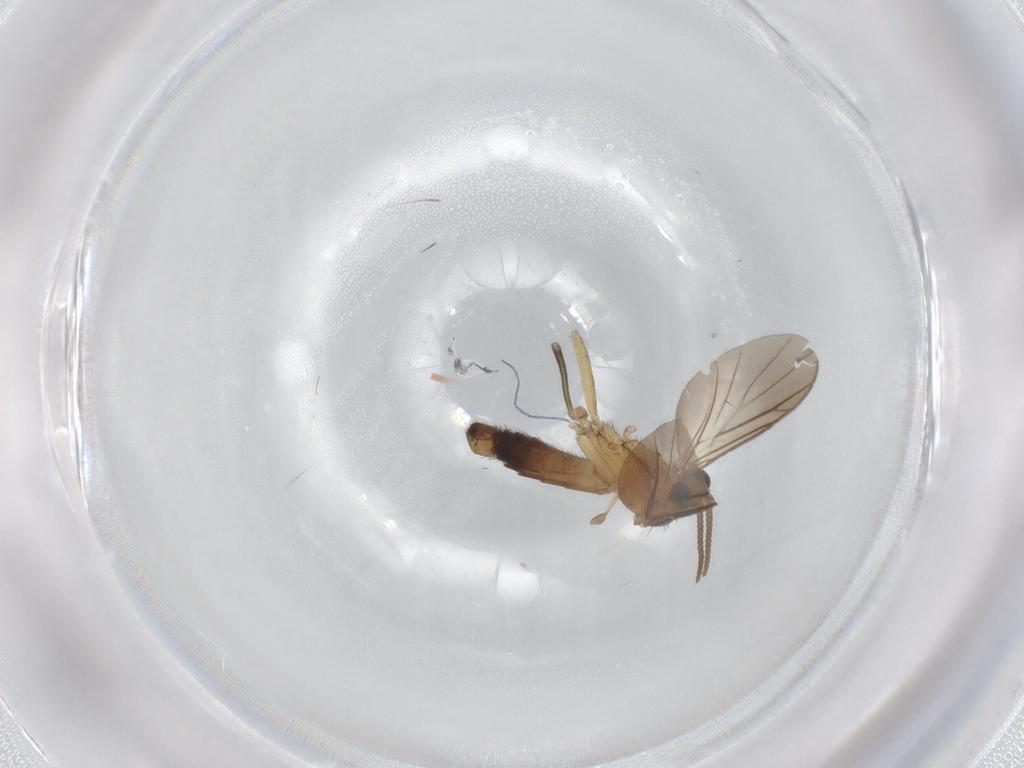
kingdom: Animalia
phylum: Arthropoda
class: Insecta
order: Diptera
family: Keroplatidae
